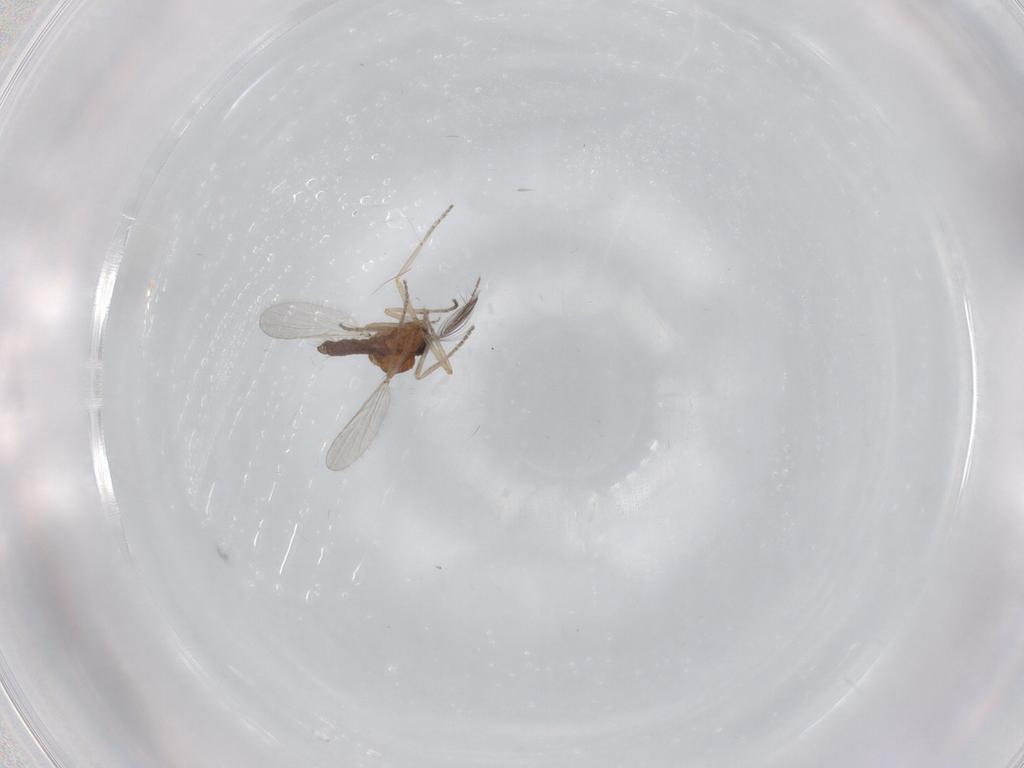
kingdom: Animalia
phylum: Arthropoda
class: Insecta
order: Diptera
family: Ceratopogonidae
